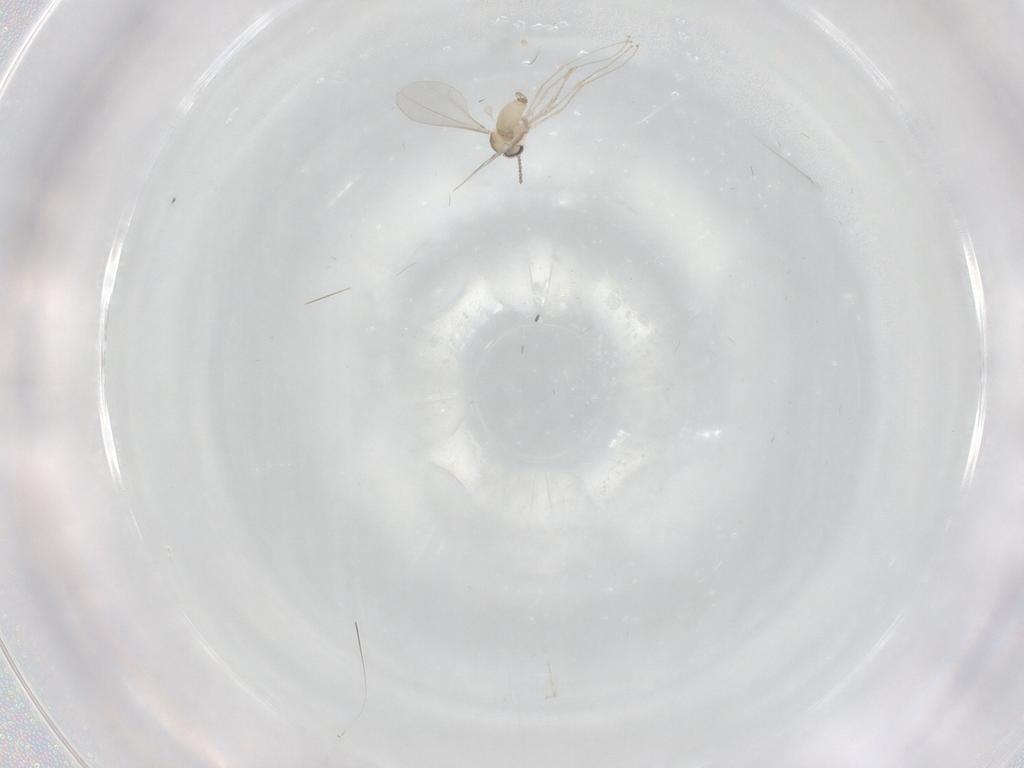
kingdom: Animalia
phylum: Arthropoda
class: Insecta
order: Diptera
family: Cecidomyiidae
